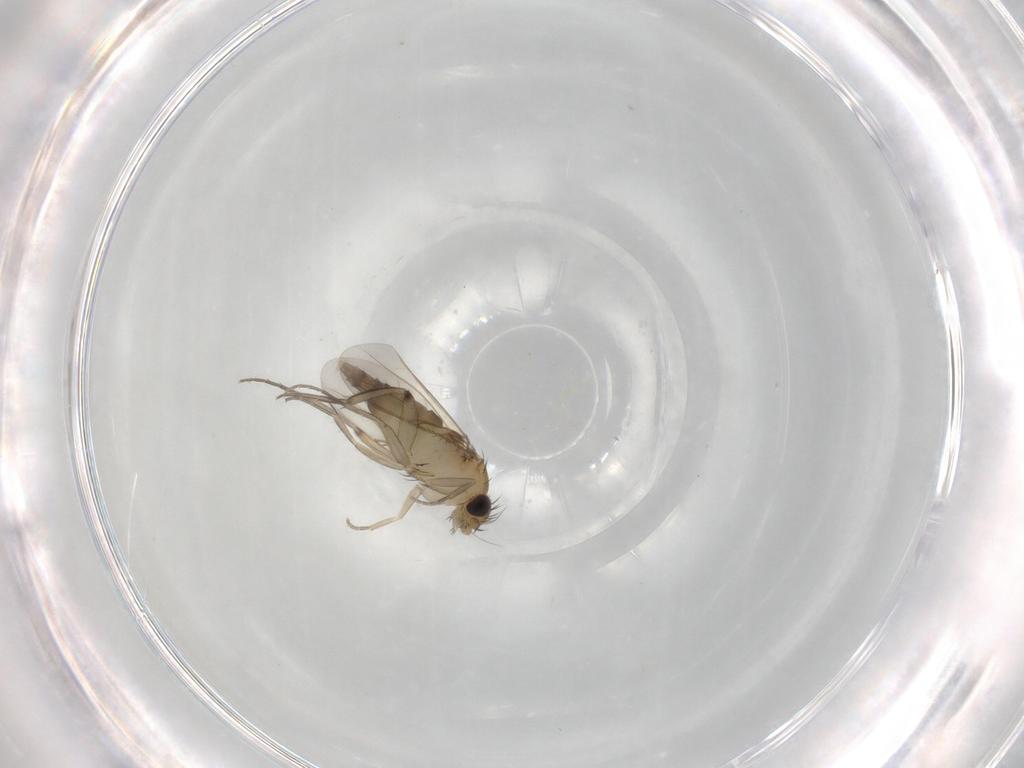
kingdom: Animalia
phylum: Arthropoda
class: Insecta
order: Diptera
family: Phoridae
